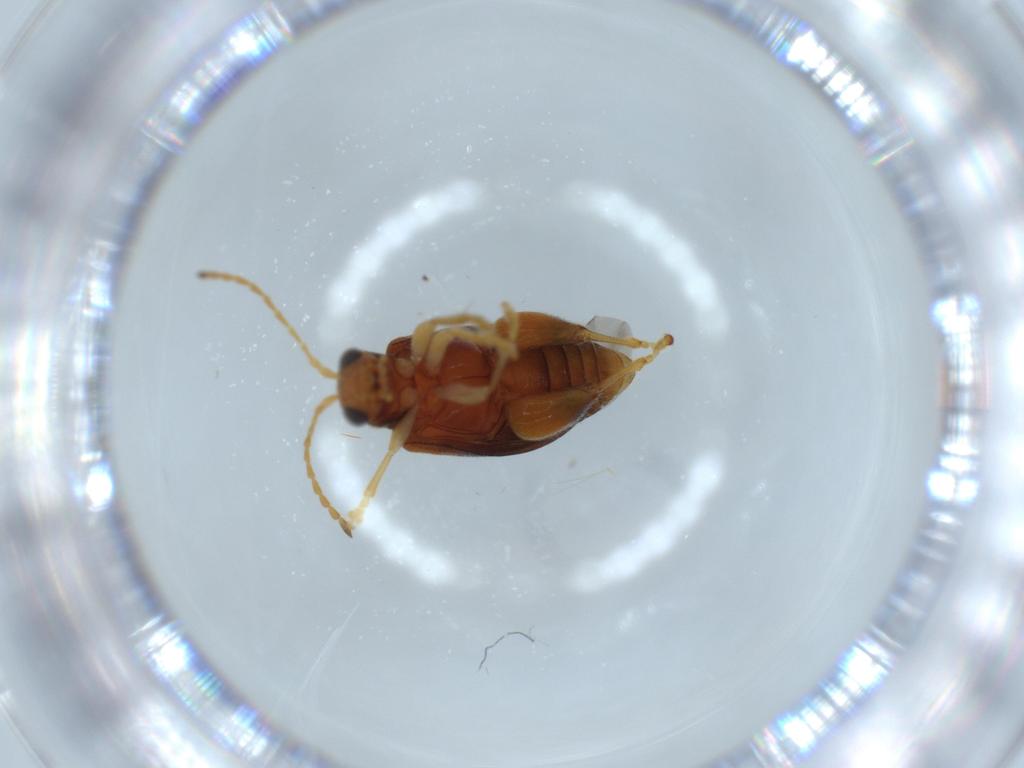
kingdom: Animalia
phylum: Arthropoda
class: Insecta
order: Coleoptera
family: Chrysomelidae
